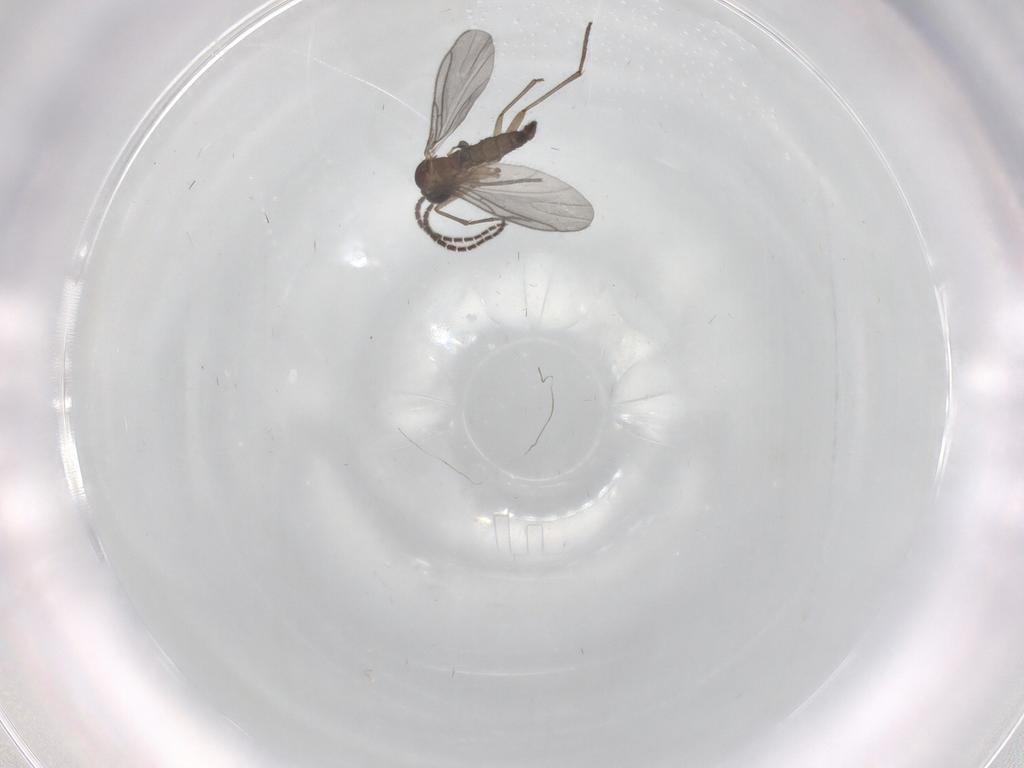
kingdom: Animalia
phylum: Arthropoda
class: Insecta
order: Diptera
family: Sciaridae
